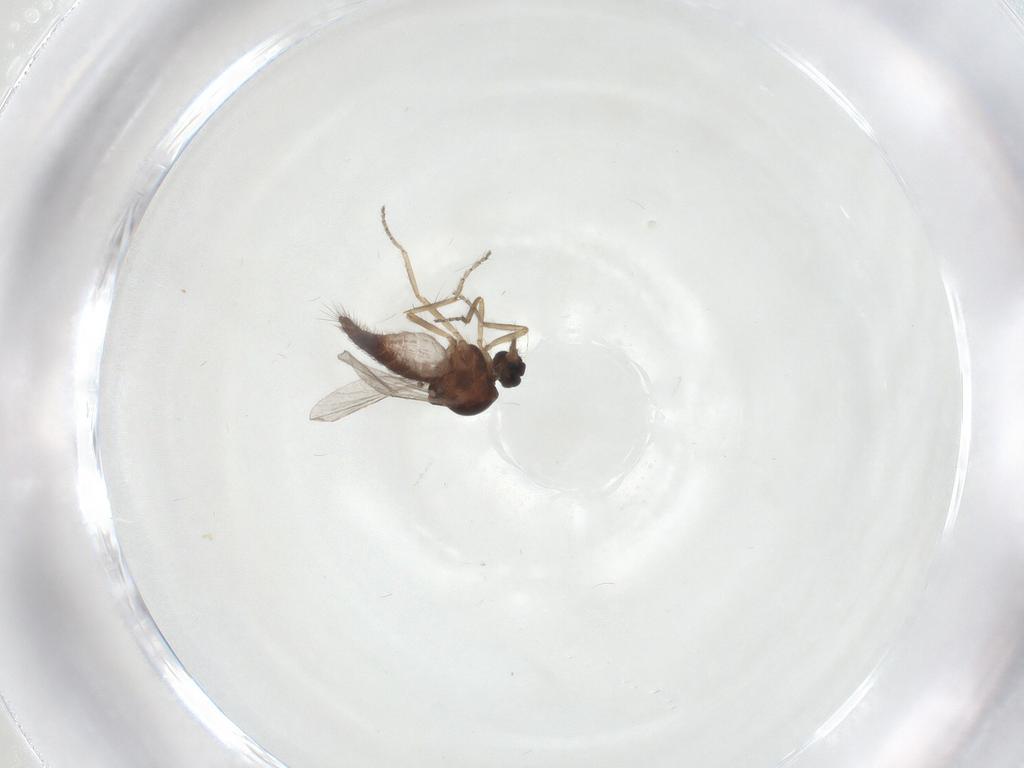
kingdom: Animalia
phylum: Arthropoda
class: Insecta
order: Diptera
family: Ceratopogonidae
